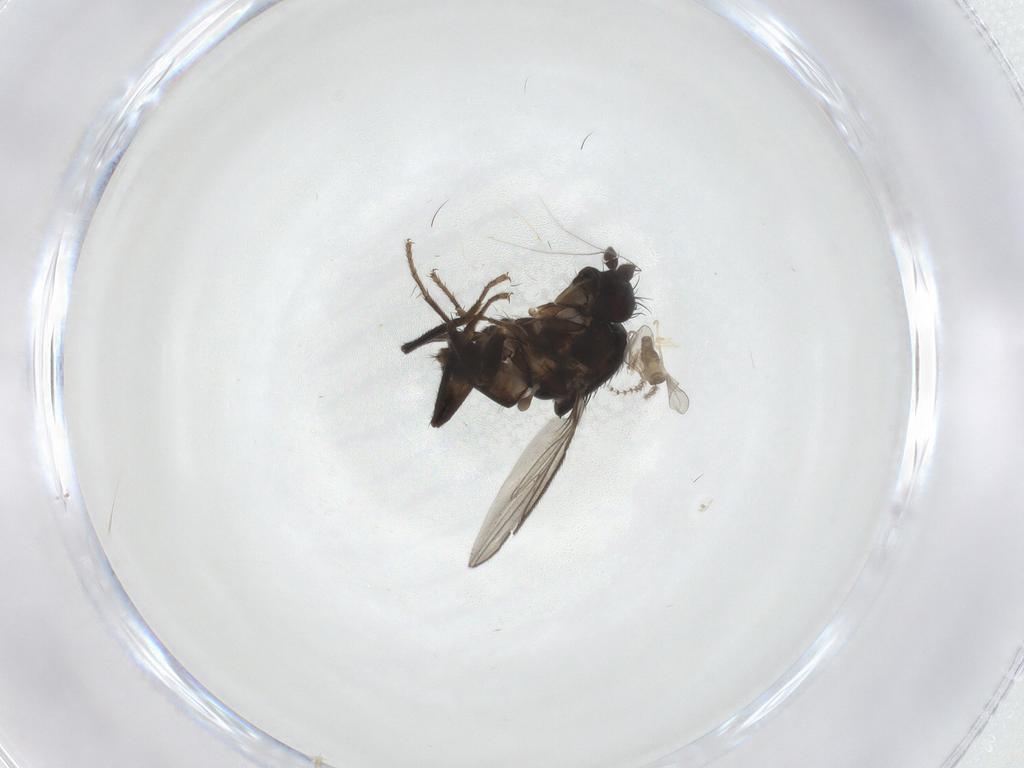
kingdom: Animalia
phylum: Arthropoda
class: Insecta
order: Diptera
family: Sphaeroceridae
